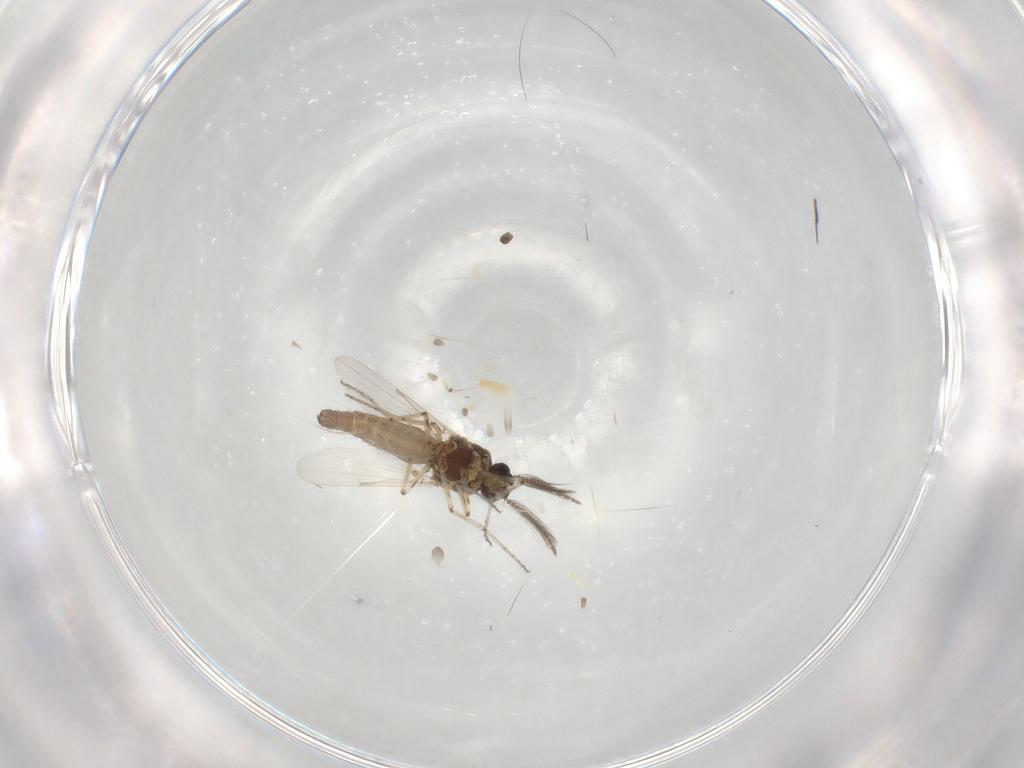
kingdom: Animalia
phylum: Arthropoda
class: Insecta
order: Diptera
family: Ceratopogonidae
